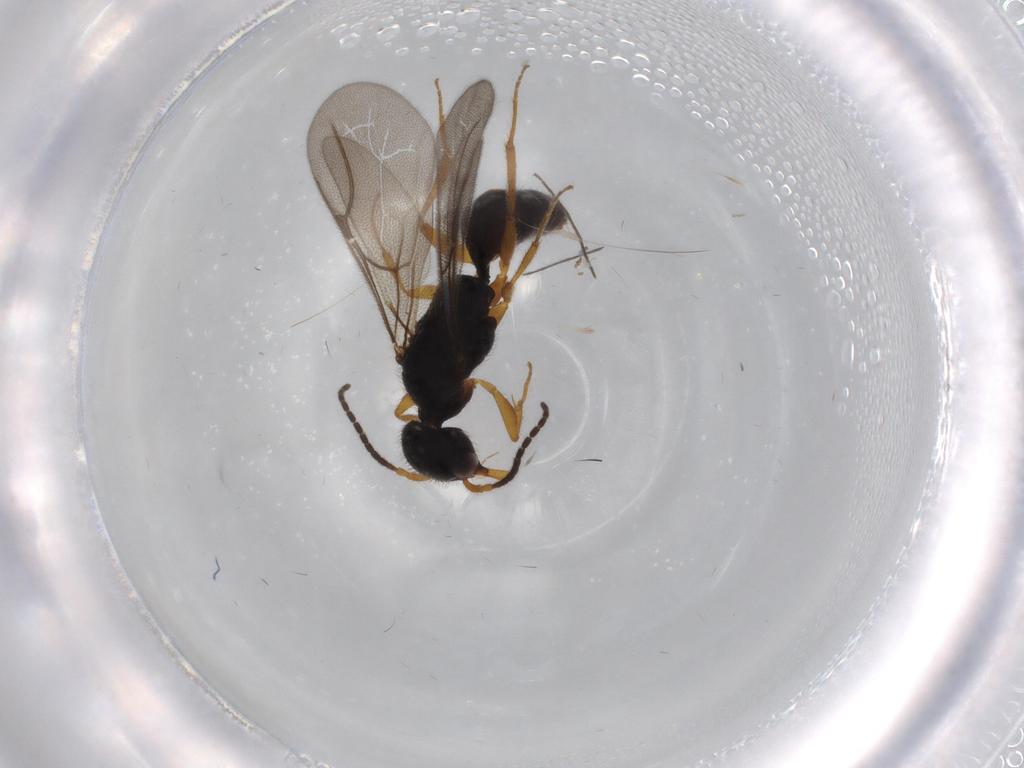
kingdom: Animalia
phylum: Arthropoda
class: Insecta
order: Hymenoptera
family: Bethylidae
